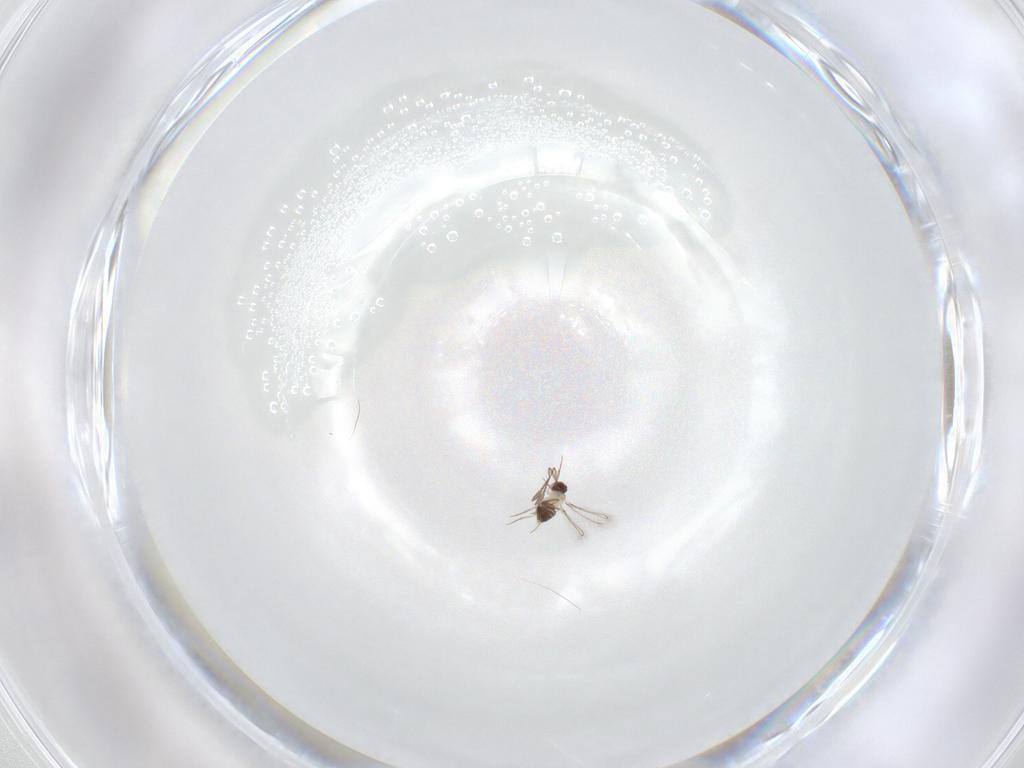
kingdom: Animalia
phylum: Arthropoda
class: Insecta
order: Hymenoptera
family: Mymaridae
